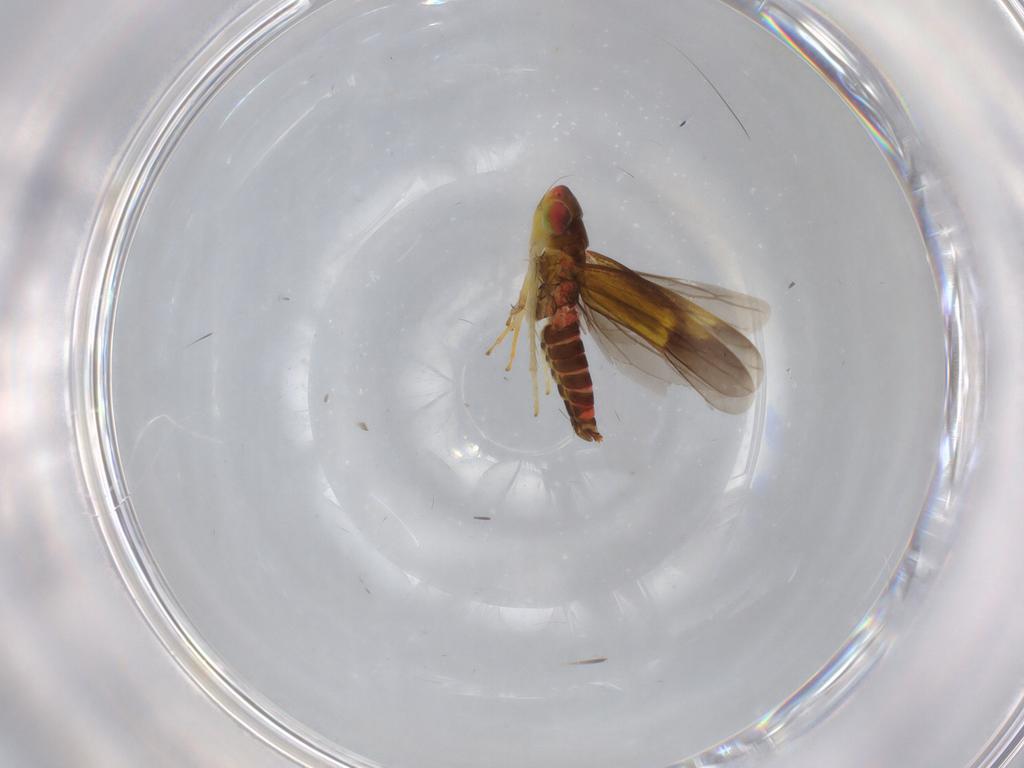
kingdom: Animalia
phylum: Arthropoda
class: Insecta
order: Hemiptera
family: Cicadellidae
